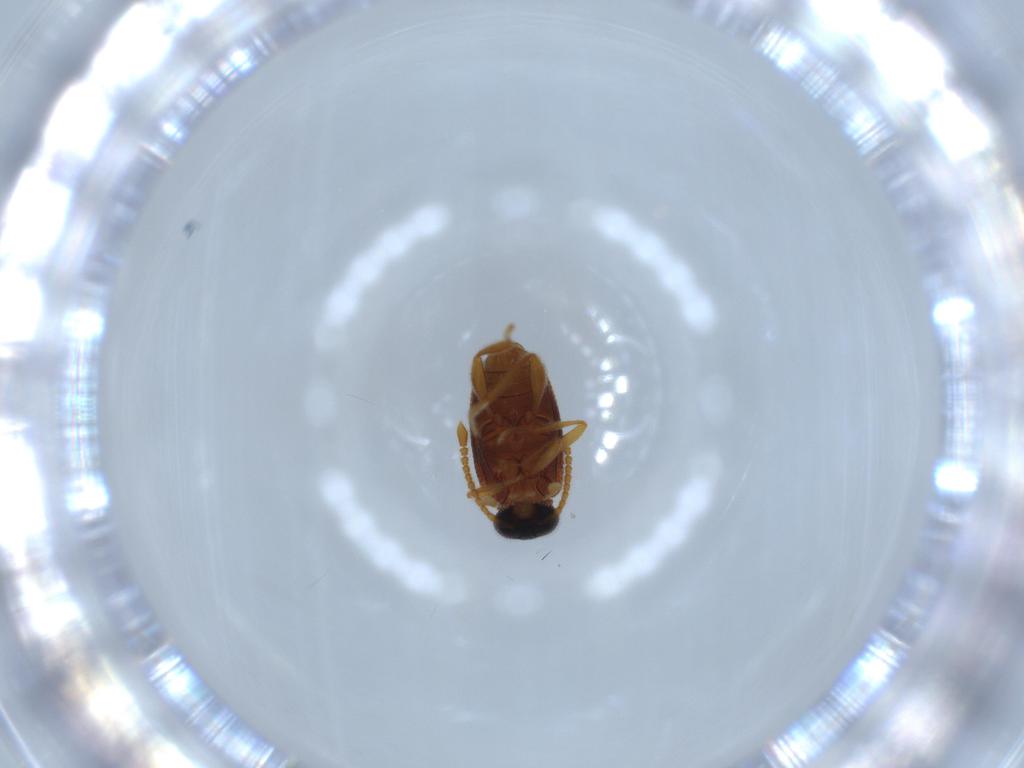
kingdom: Animalia
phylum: Arthropoda
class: Insecta
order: Coleoptera
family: Aderidae
